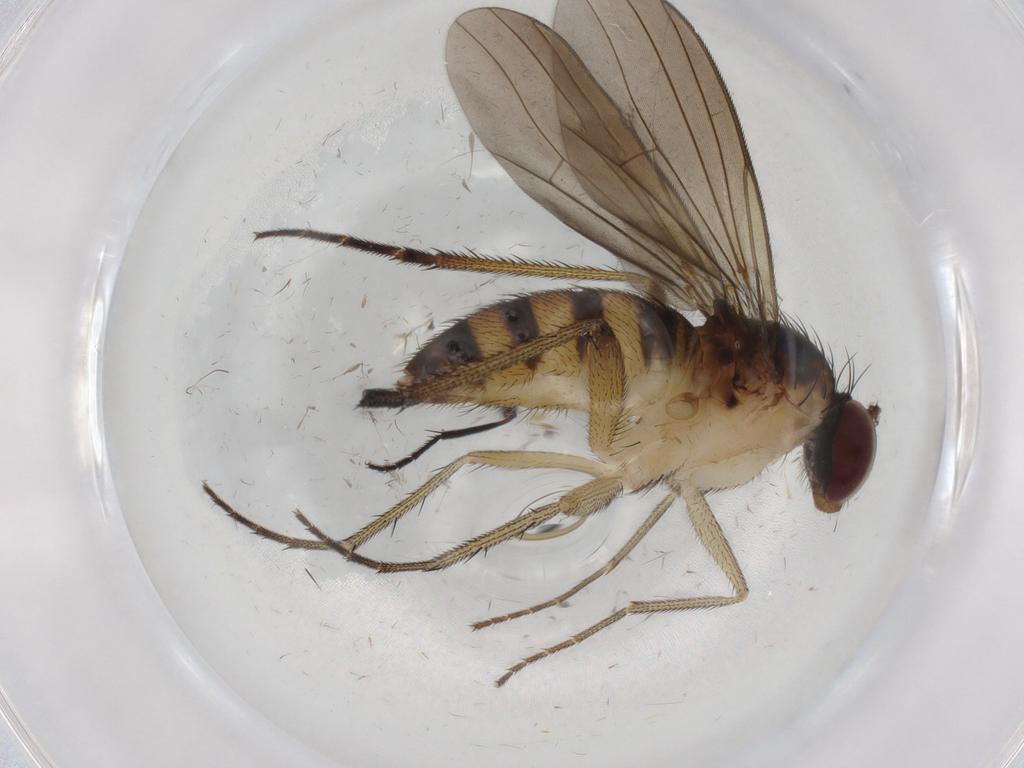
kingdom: Animalia
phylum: Arthropoda
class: Insecta
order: Diptera
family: Dolichopodidae
